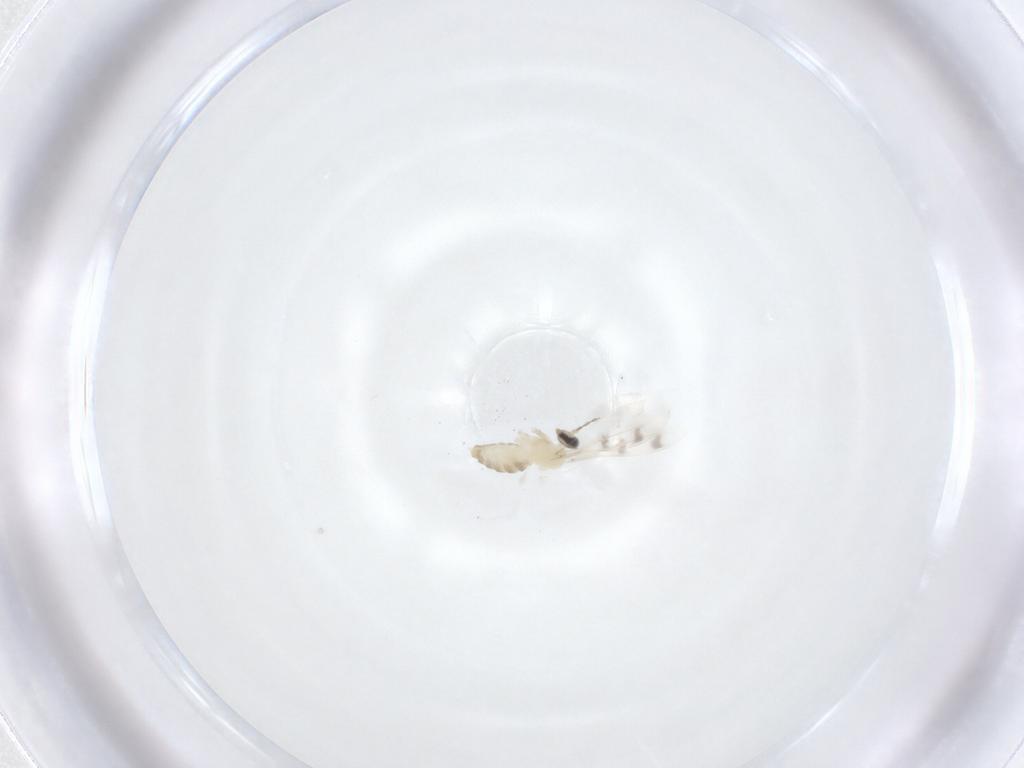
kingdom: Animalia
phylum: Arthropoda
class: Insecta
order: Diptera
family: Cecidomyiidae
